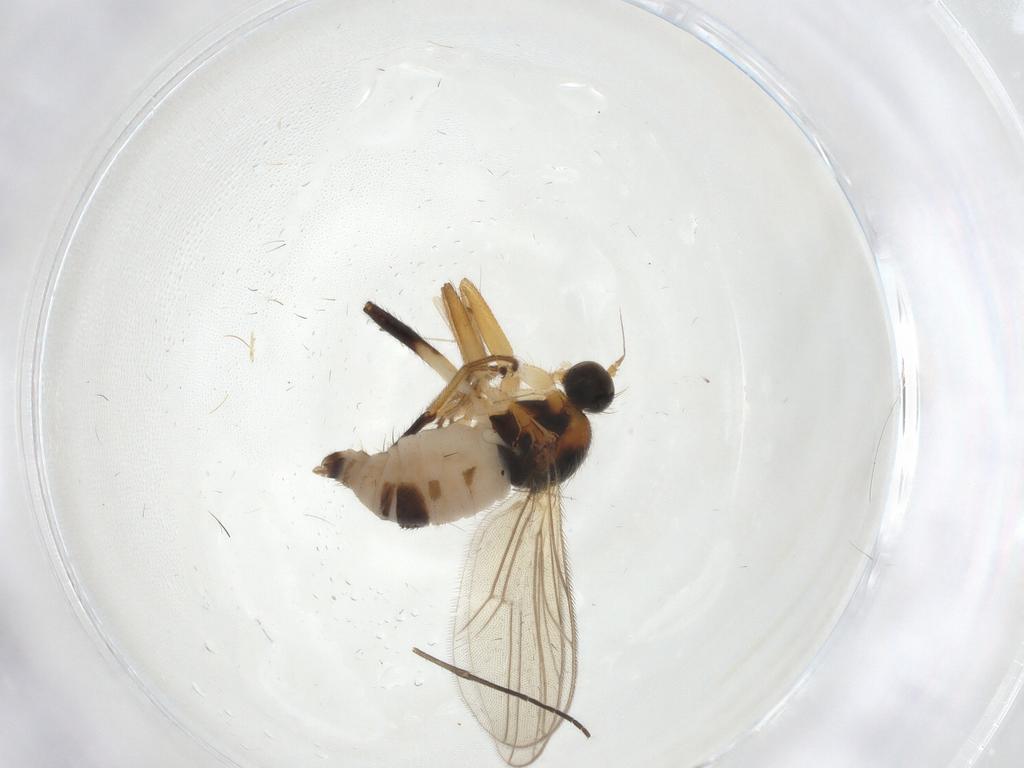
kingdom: Animalia
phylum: Arthropoda
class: Insecta
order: Diptera
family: Hybotidae
